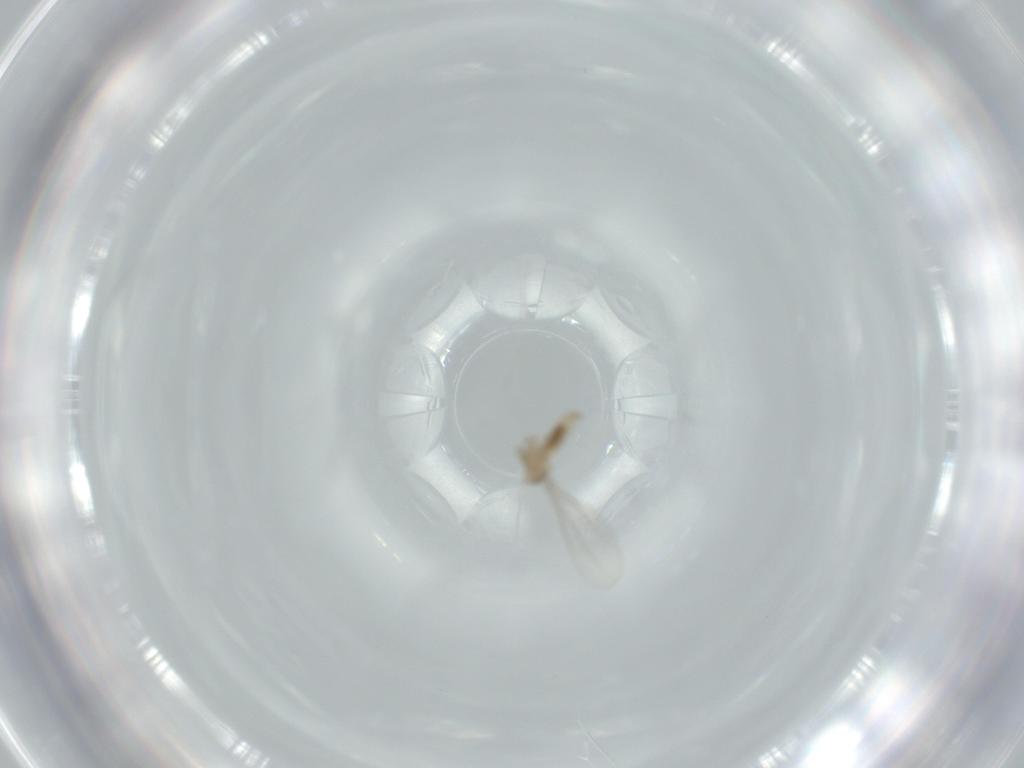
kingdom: Animalia
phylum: Arthropoda
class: Insecta
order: Diptera
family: Cecidomyiidae
